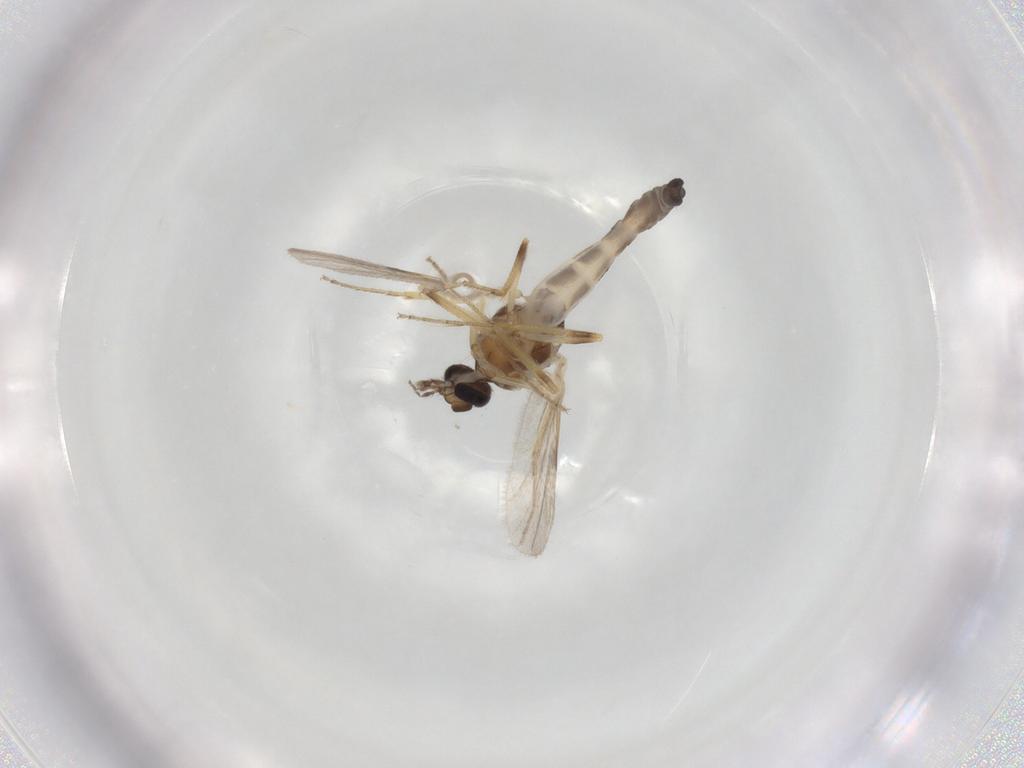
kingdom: Animalia
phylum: Arthropoda
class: Insecta
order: Diptera
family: Ceratopogonidae
